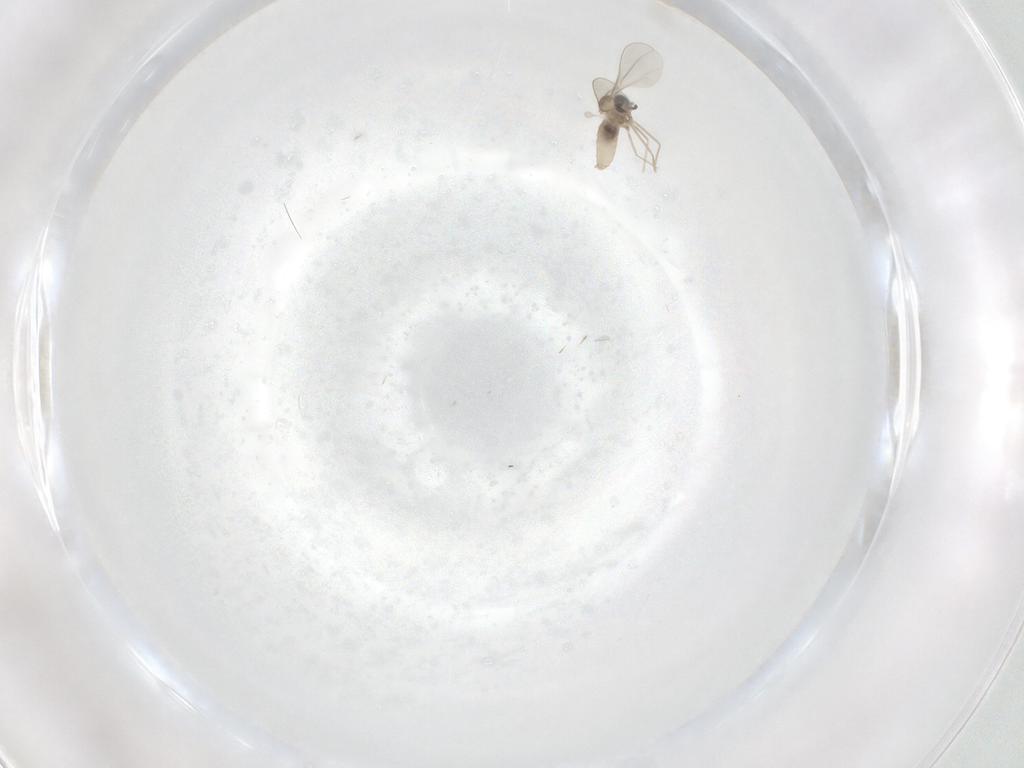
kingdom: Animalia
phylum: Arthropoda
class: Insecta
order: Diptera
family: Cecidomyiidae
